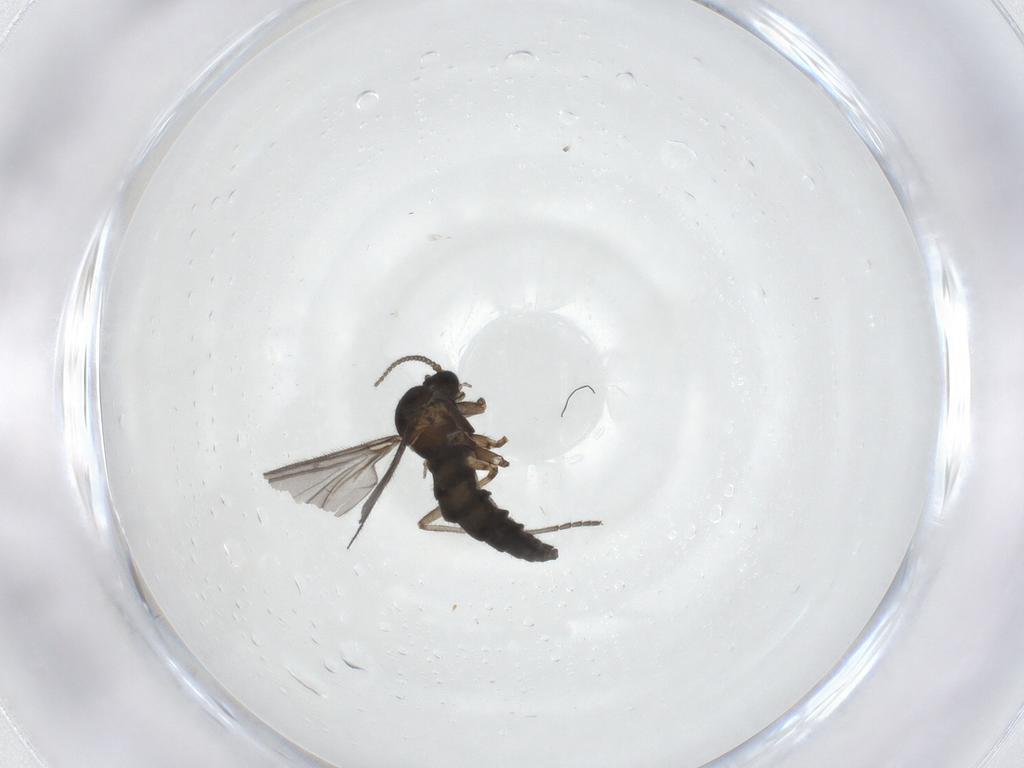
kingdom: Animalia
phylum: Arthropoda
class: Insecta
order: Diptera
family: Sciaridae
